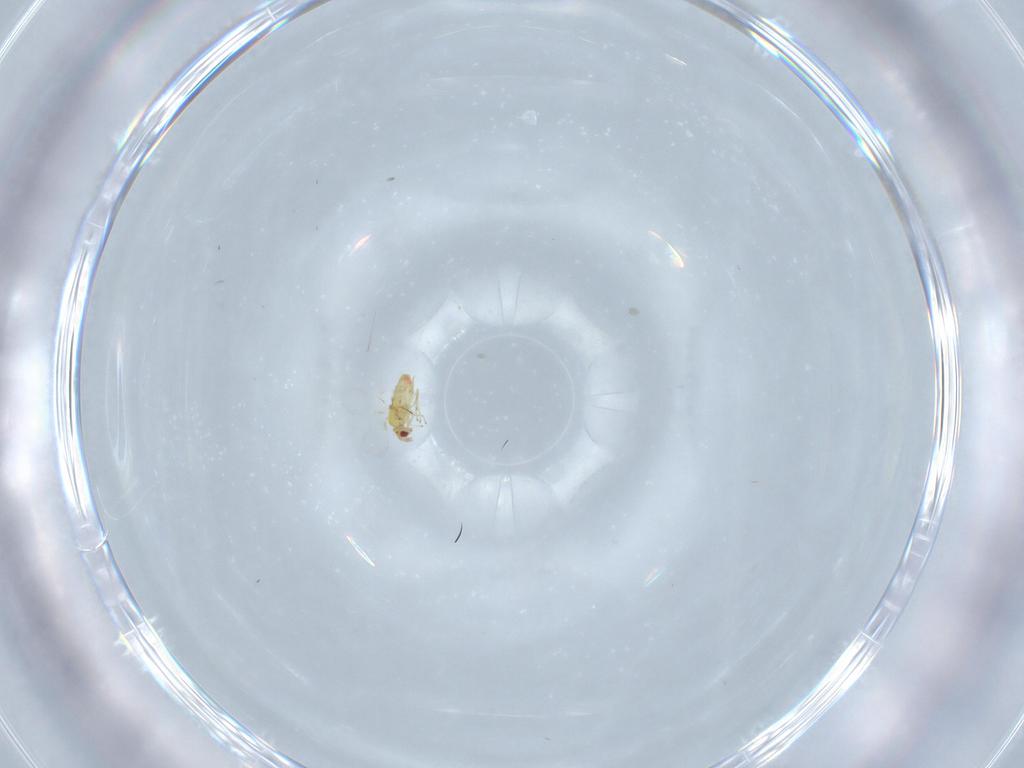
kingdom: Animalia
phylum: Arthropoda
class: Insecta
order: Hymenoptera
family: Trichogrammatidae
